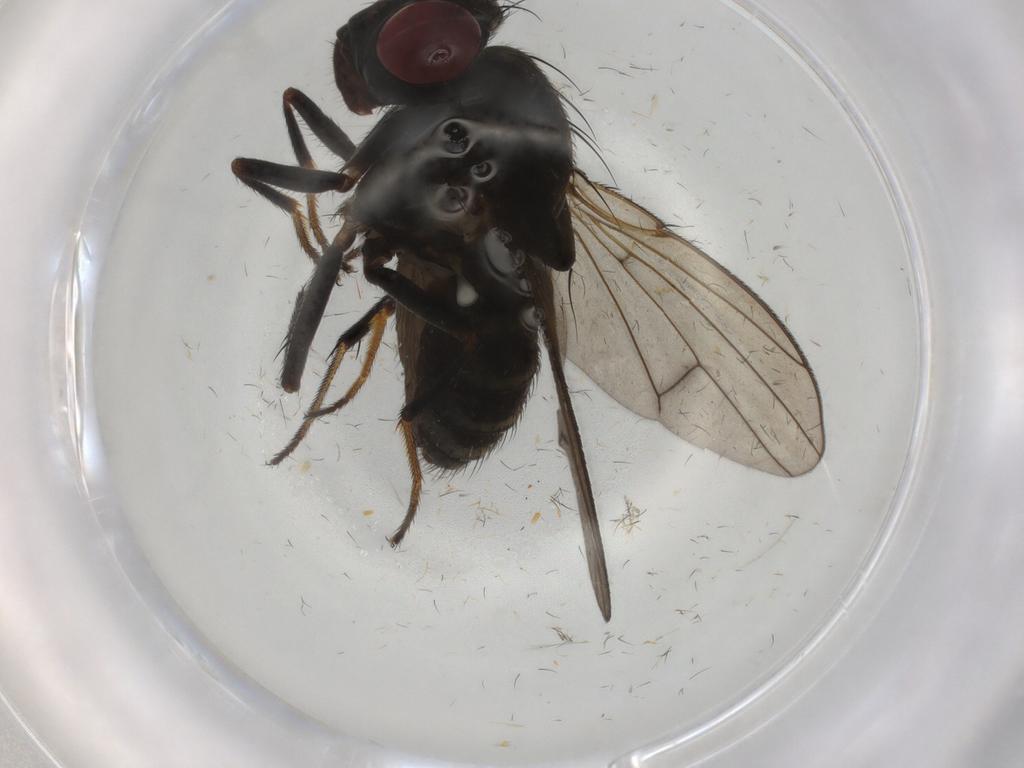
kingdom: Animalia
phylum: Arthropoda
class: Insecta
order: Diptera
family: Ephydridae
